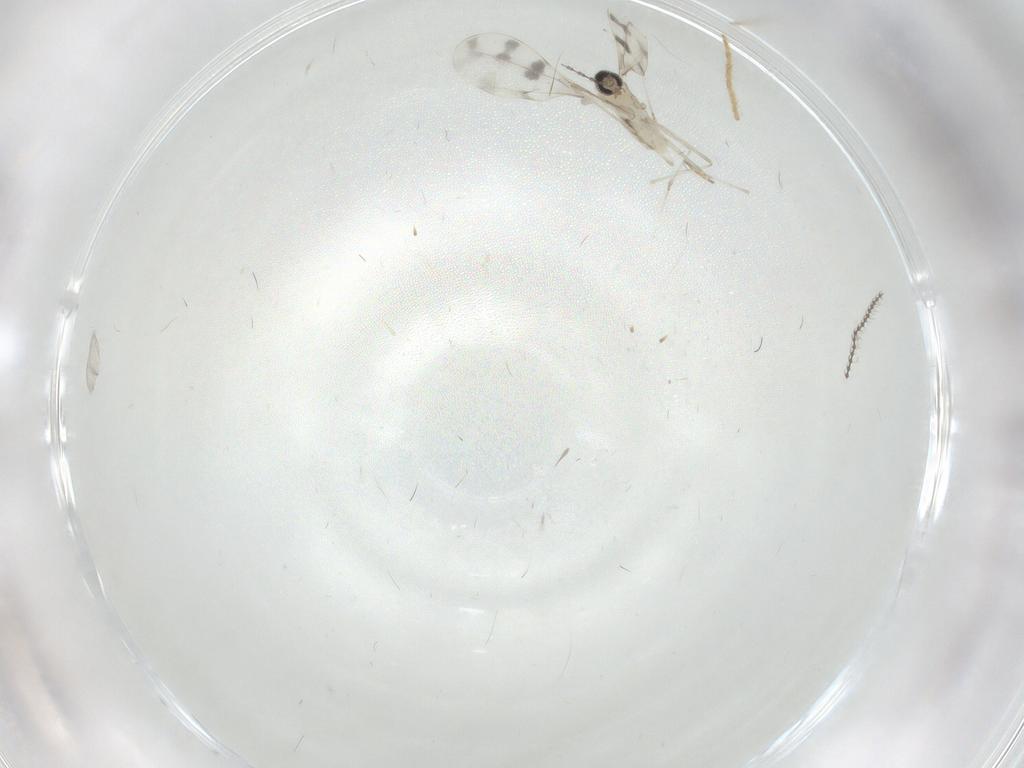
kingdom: Animalia
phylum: Arthropoda
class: Insecta
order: Diptera
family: Cecidomyiidae
